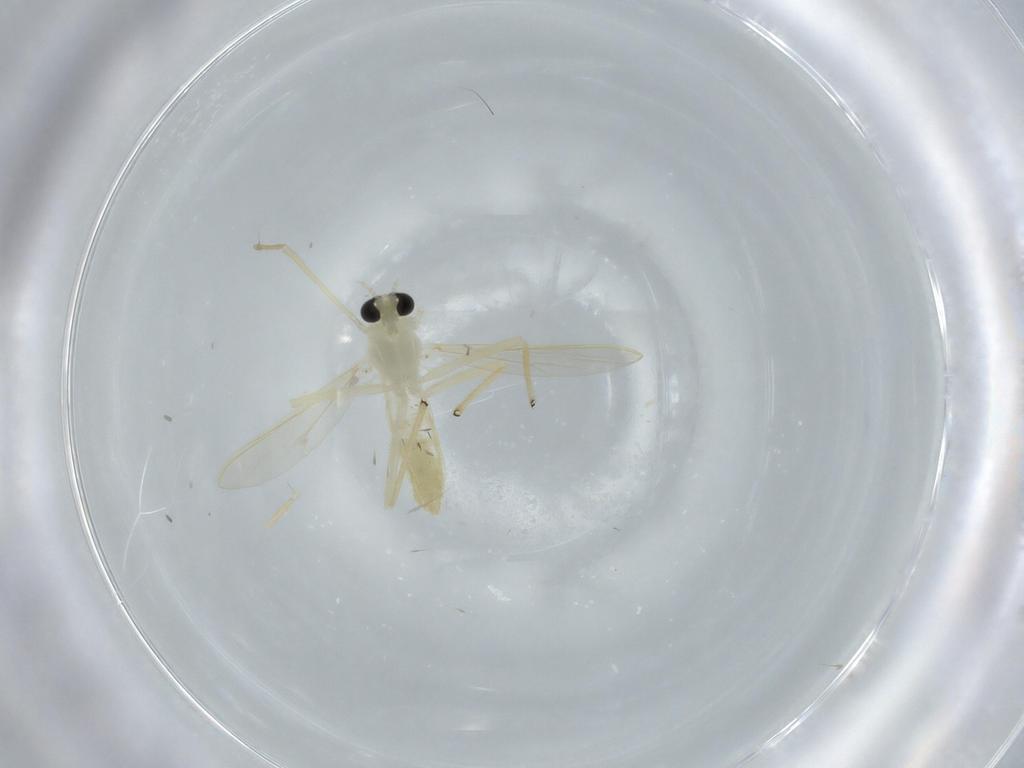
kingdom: Animalia
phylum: Arthropoda
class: Insecta
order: Diptera
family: Chironomidae
